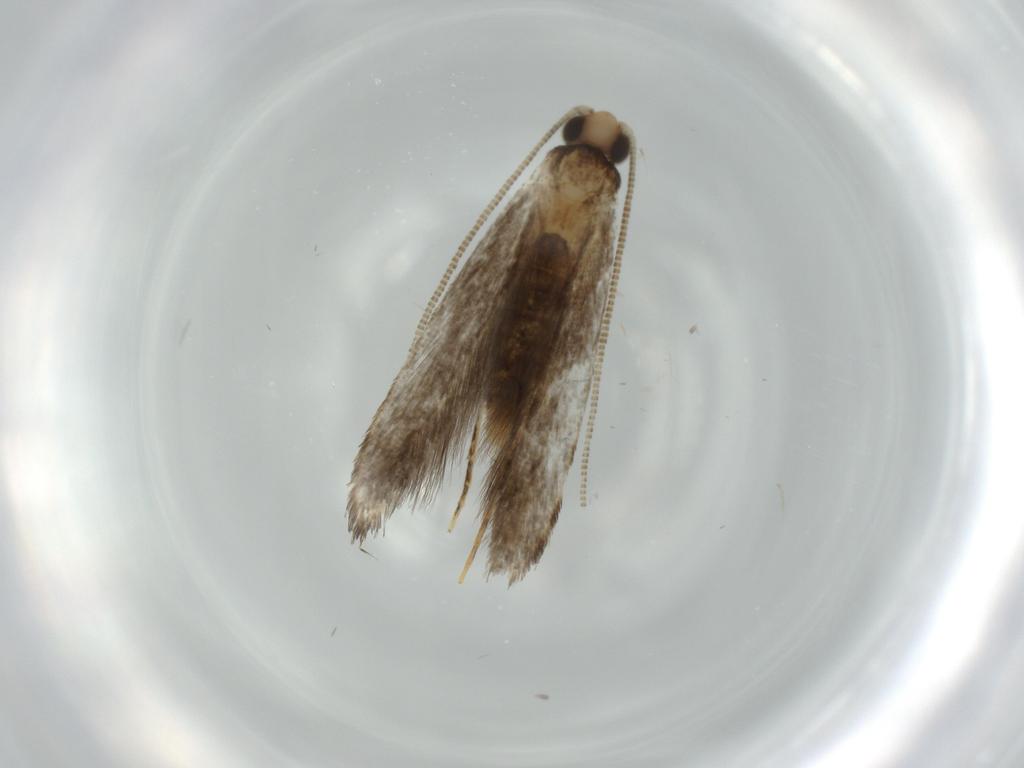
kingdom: Animalia
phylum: Arthropoda
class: Insecta
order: Lepidoptera
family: Tineidae
